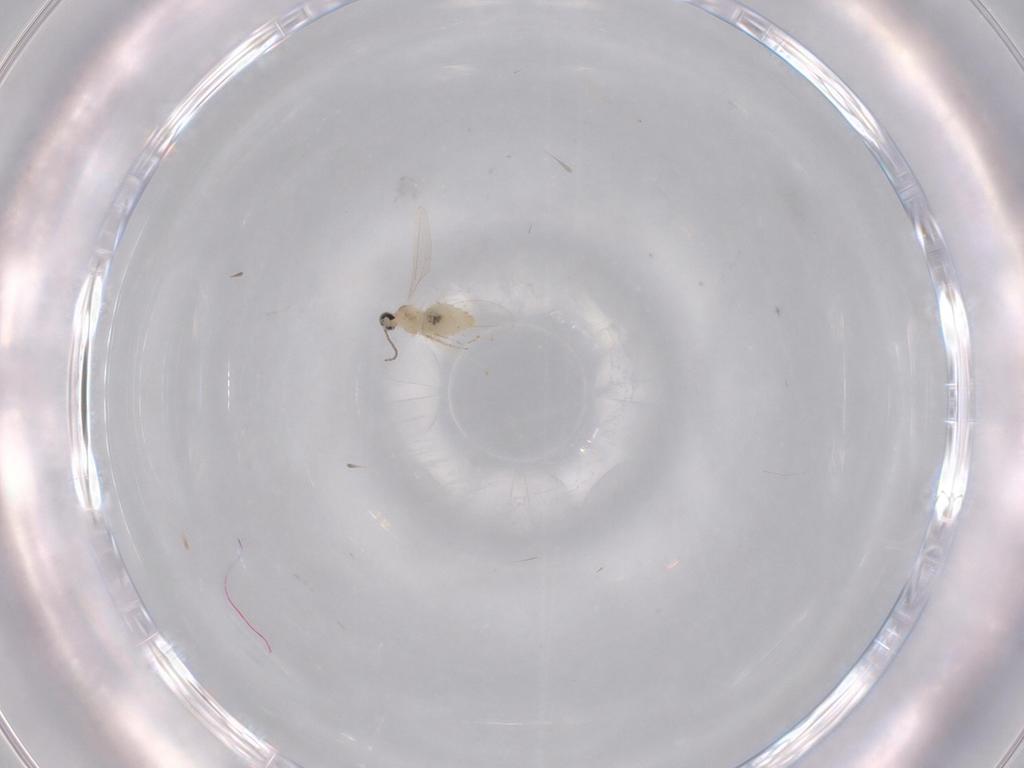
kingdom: Animalia
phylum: Arthropoda
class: Insecta
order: Diptera
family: Cecidomyiidae
